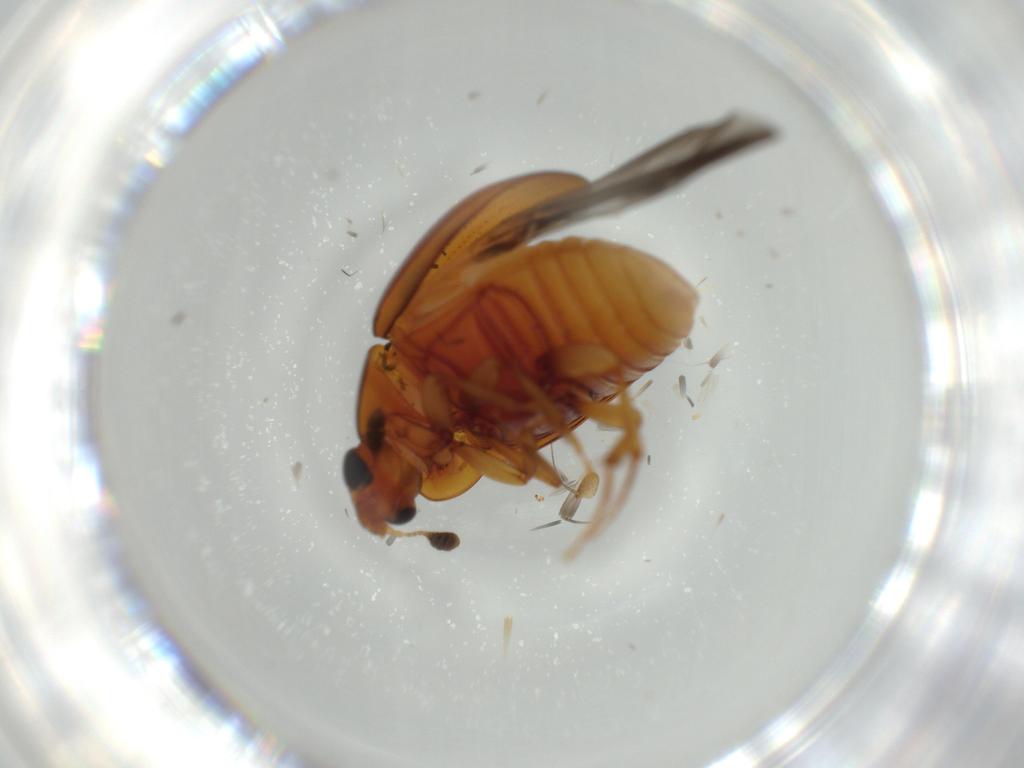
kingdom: Animalia
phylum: Arthropoda
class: Insecta
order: Coleoptera
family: Nitidulidae
